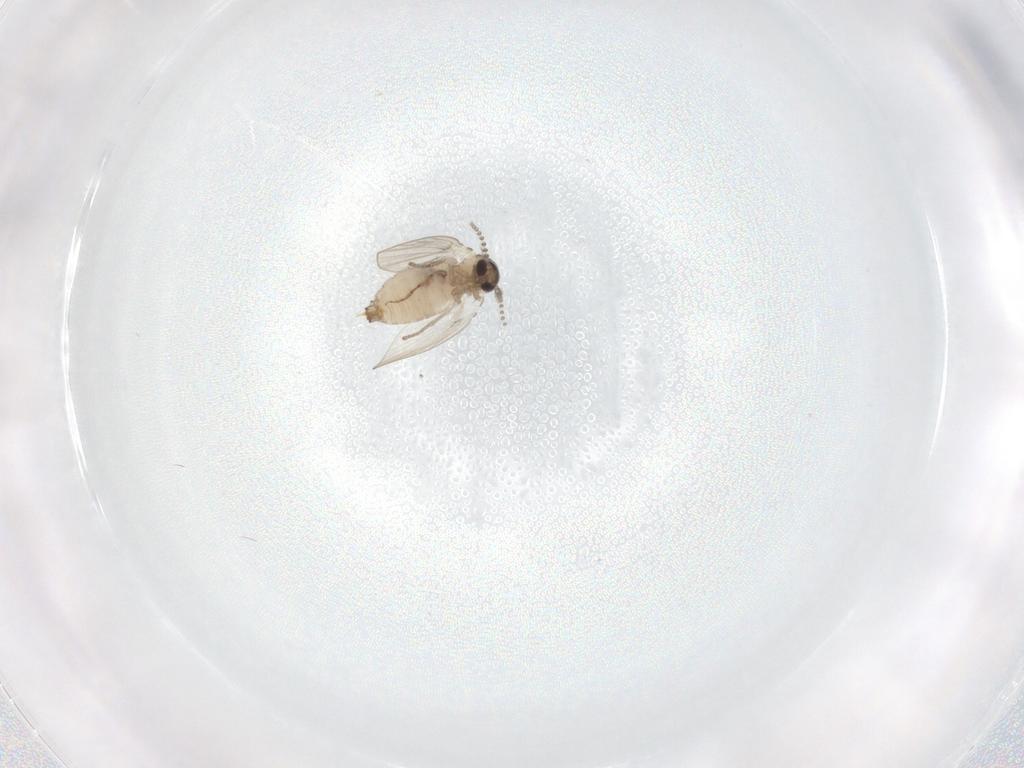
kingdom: Animalia
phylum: Arthropoda
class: Insecta
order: Diptera
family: Psychodidae
